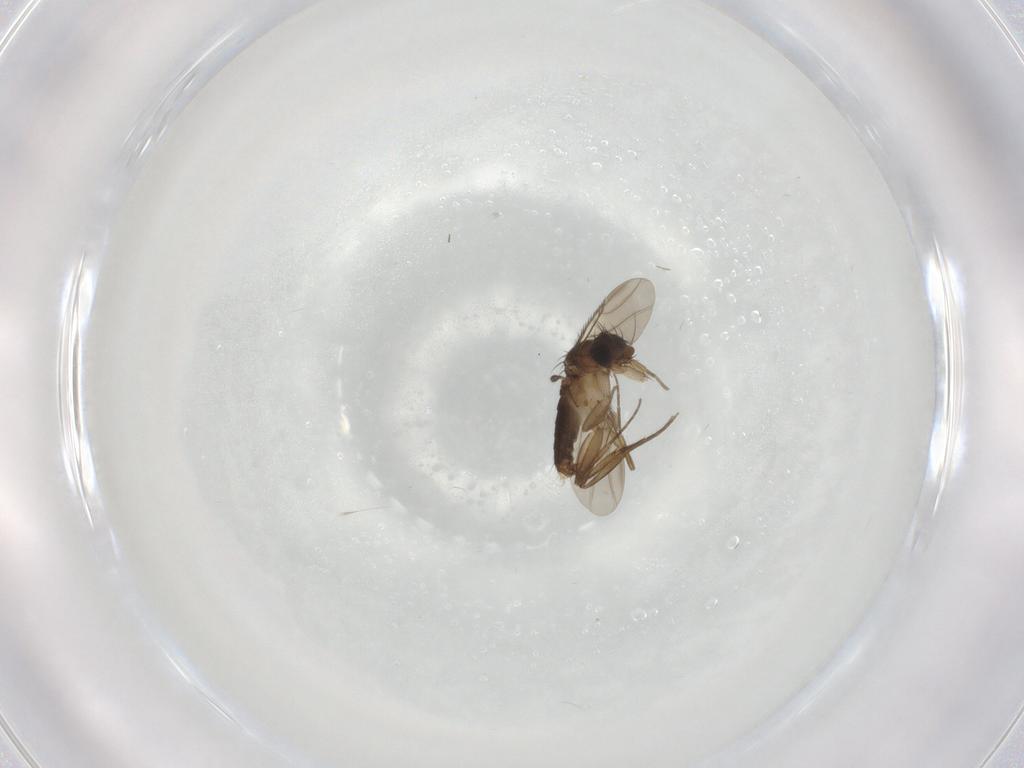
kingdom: Animalia
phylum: Arthropoda
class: Insecta
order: Diptera
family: Phoridae
